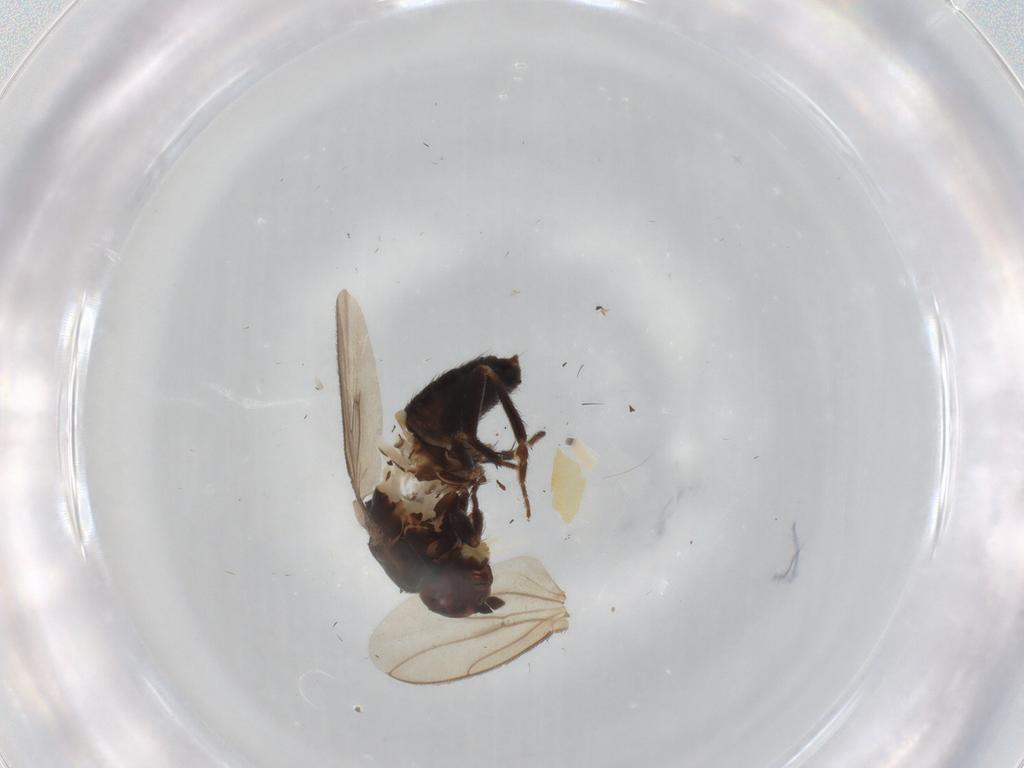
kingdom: Animalia
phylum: Arthropoda
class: Insecta
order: Diptera
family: Sphaeroceridae
